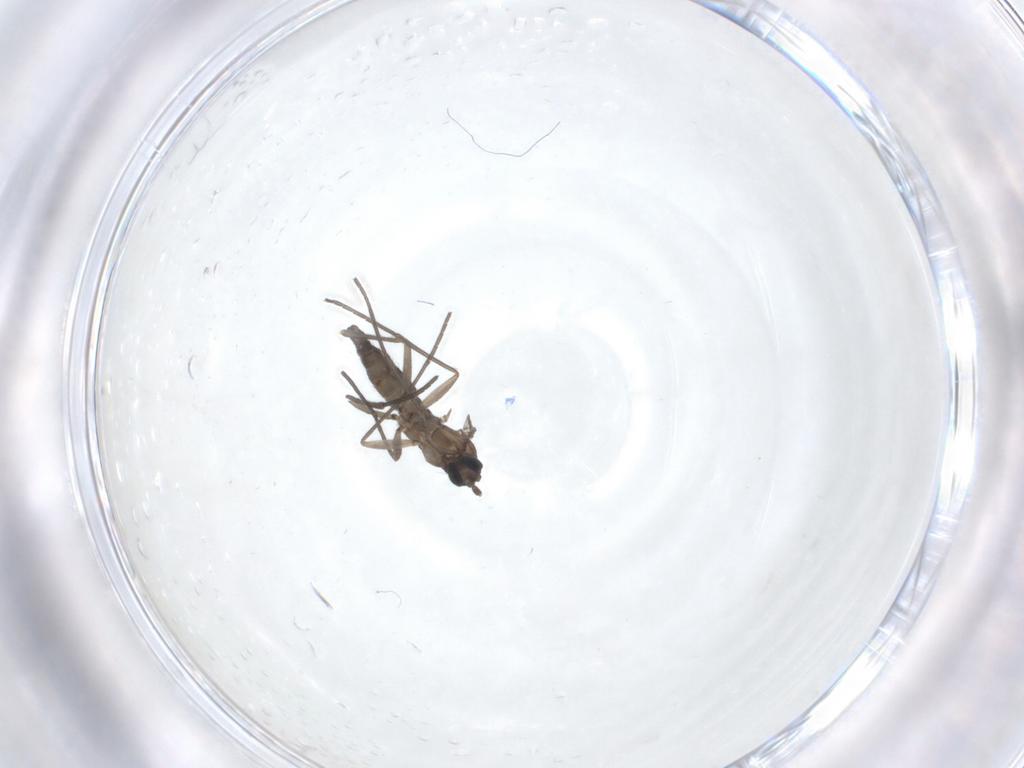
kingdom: Animalia
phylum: Arthropoda
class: Insecta
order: Diptera
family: Sciaridae
